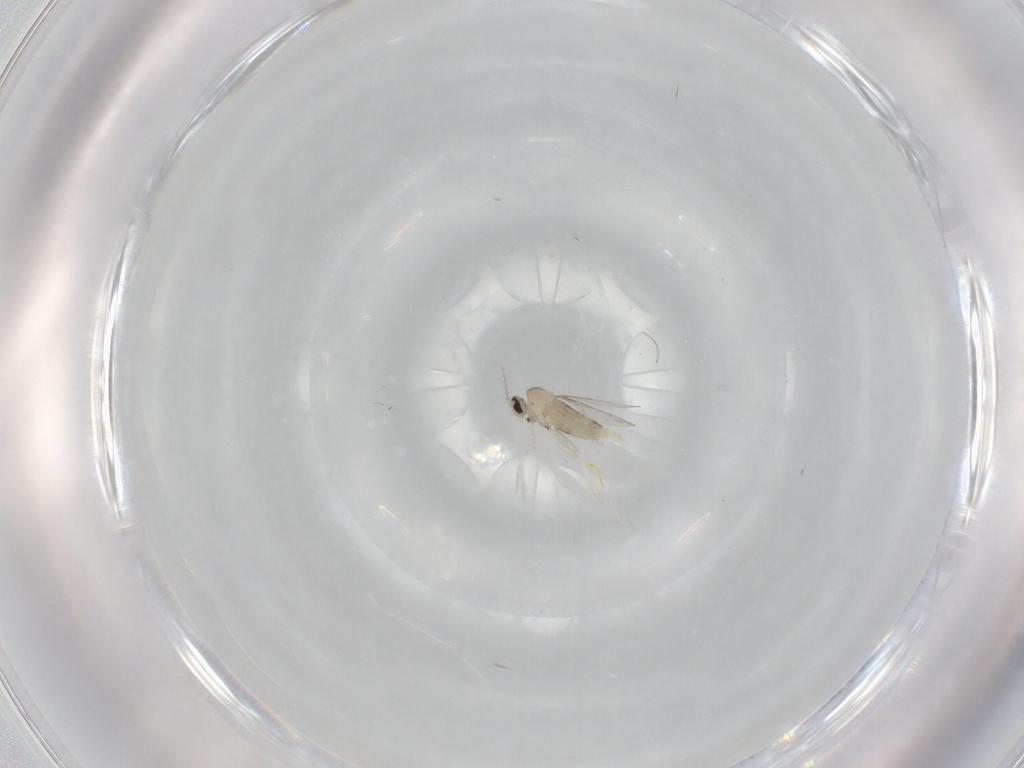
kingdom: Animalia
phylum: Arthropoda
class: Insecta
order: Diptera
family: Cecidomyiidae
